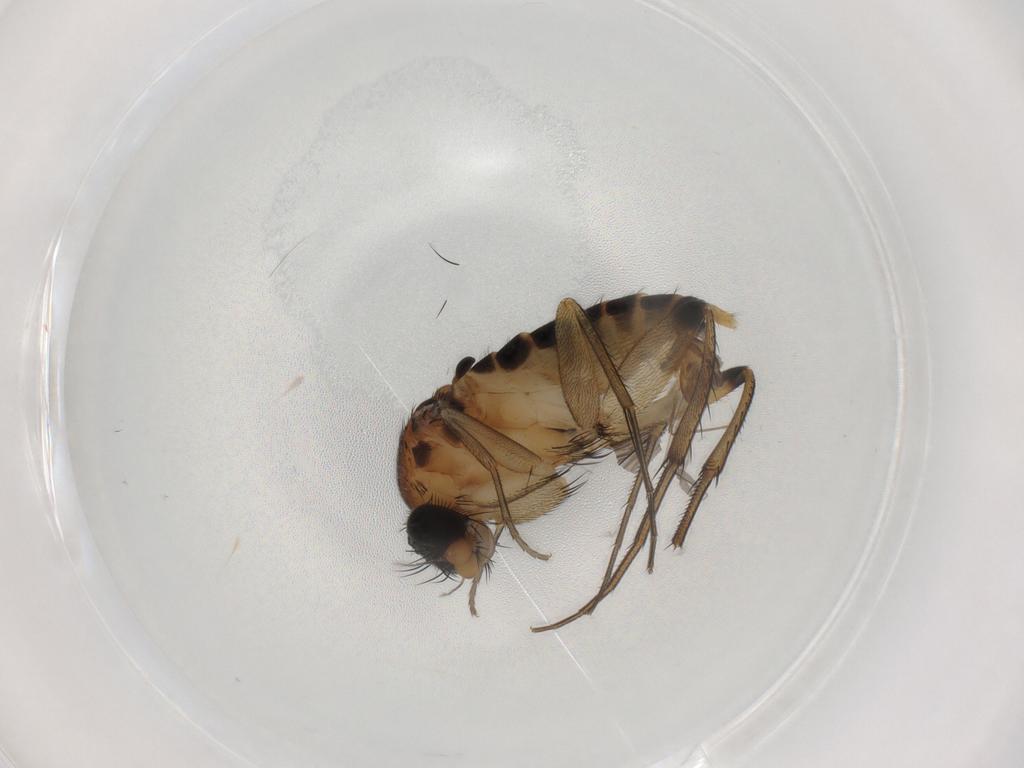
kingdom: Animalia
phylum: Arthropoda
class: Insecta
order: Diptera
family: Chironomidae
